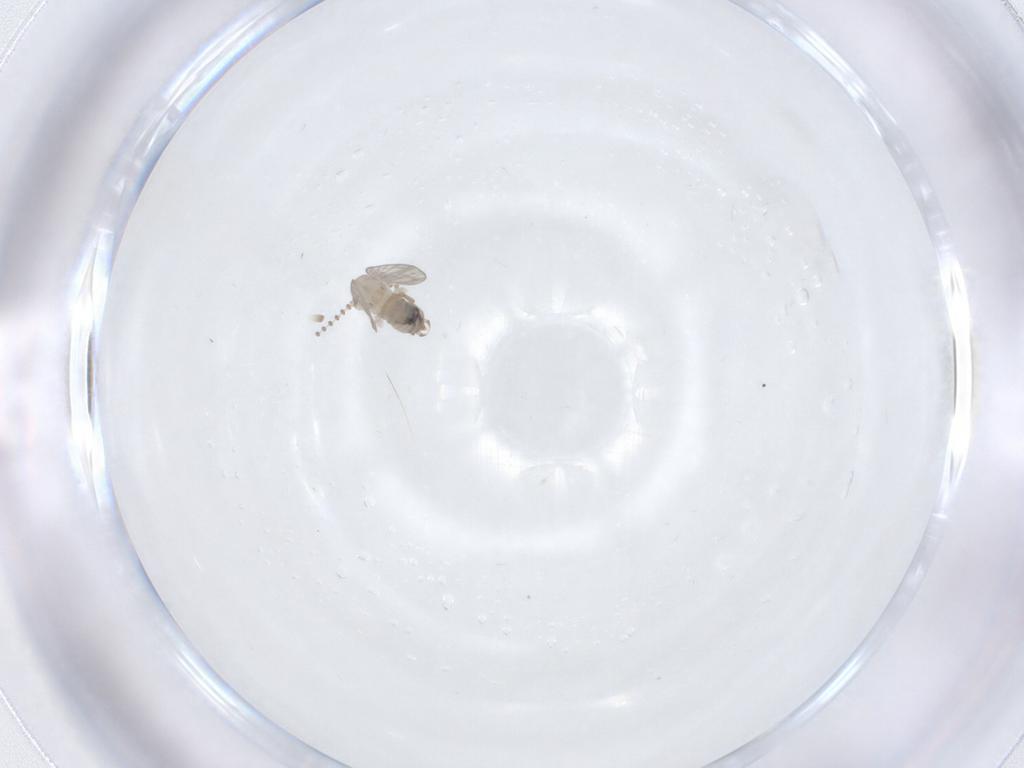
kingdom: Animalia
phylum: Arthropoda
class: Insecta
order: Diptera
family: Psychodidae
